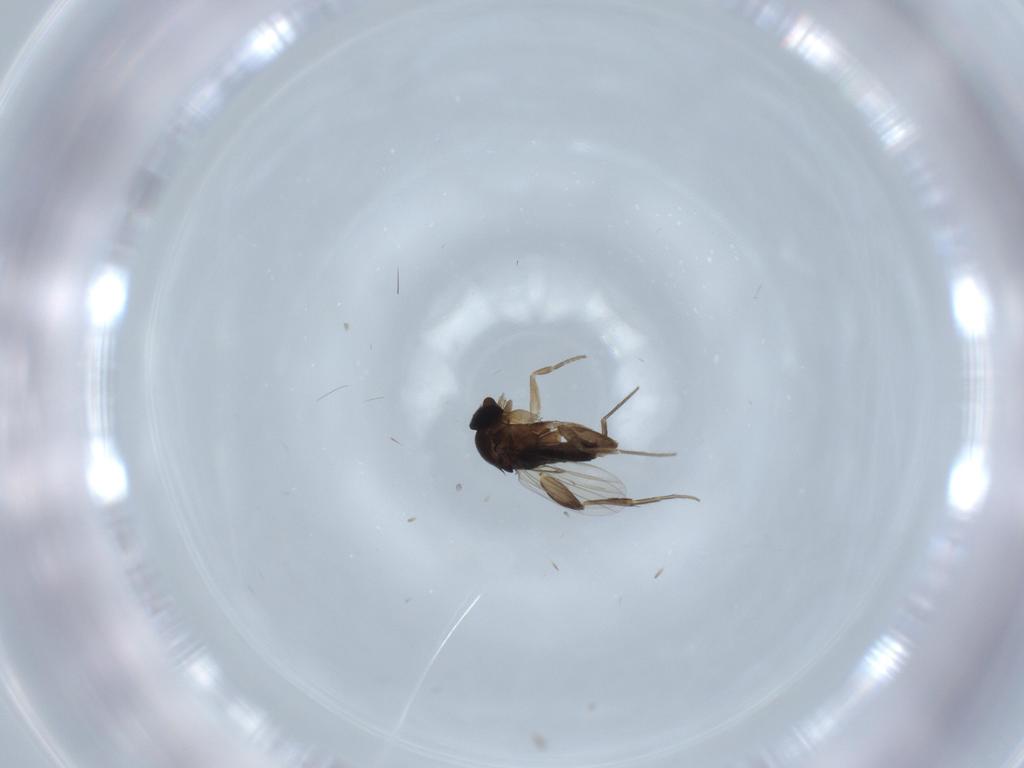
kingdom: Animalia
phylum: Arthropoda
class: Insecta
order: Diptera
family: Phoridae
